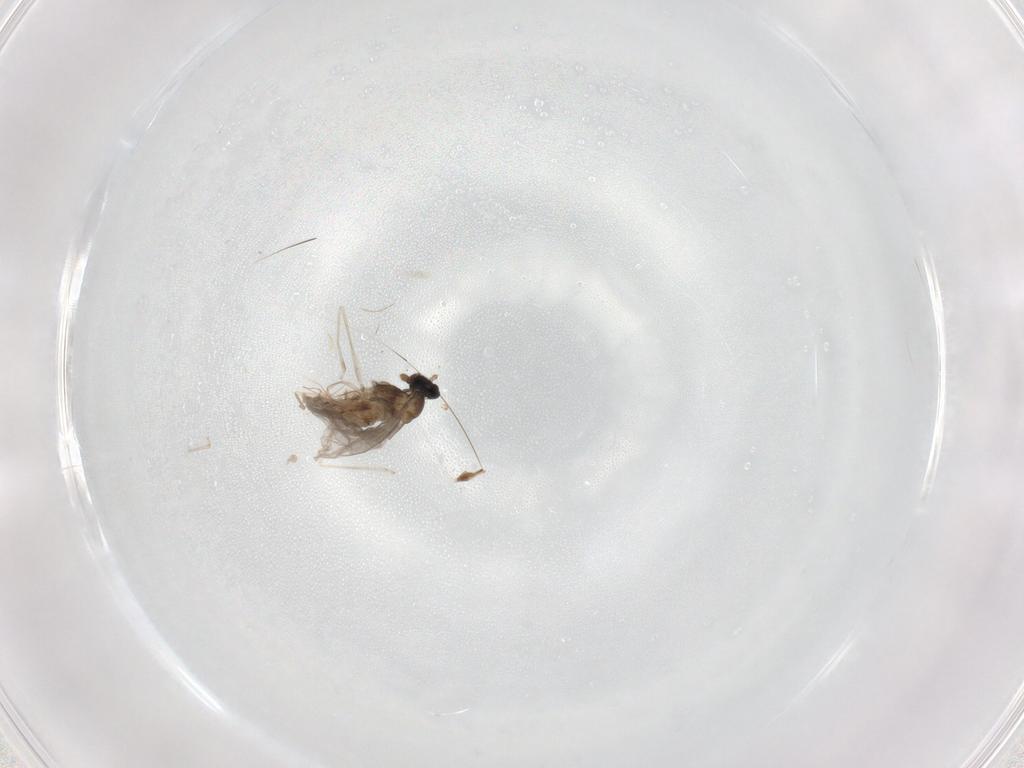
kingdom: Animalia
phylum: Arthropoda
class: Insecta
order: Diptera
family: Cecidomyiidae
